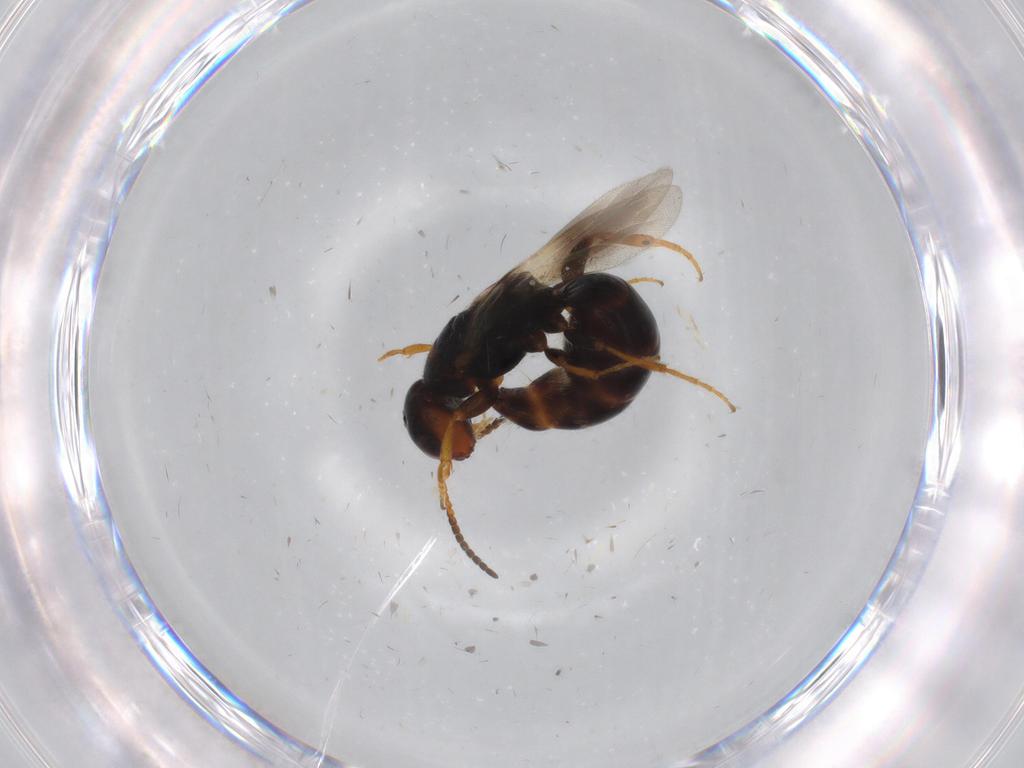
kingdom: Animalia
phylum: Arthropoda
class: Insecta
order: Hymenoptera
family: Bethylidae
